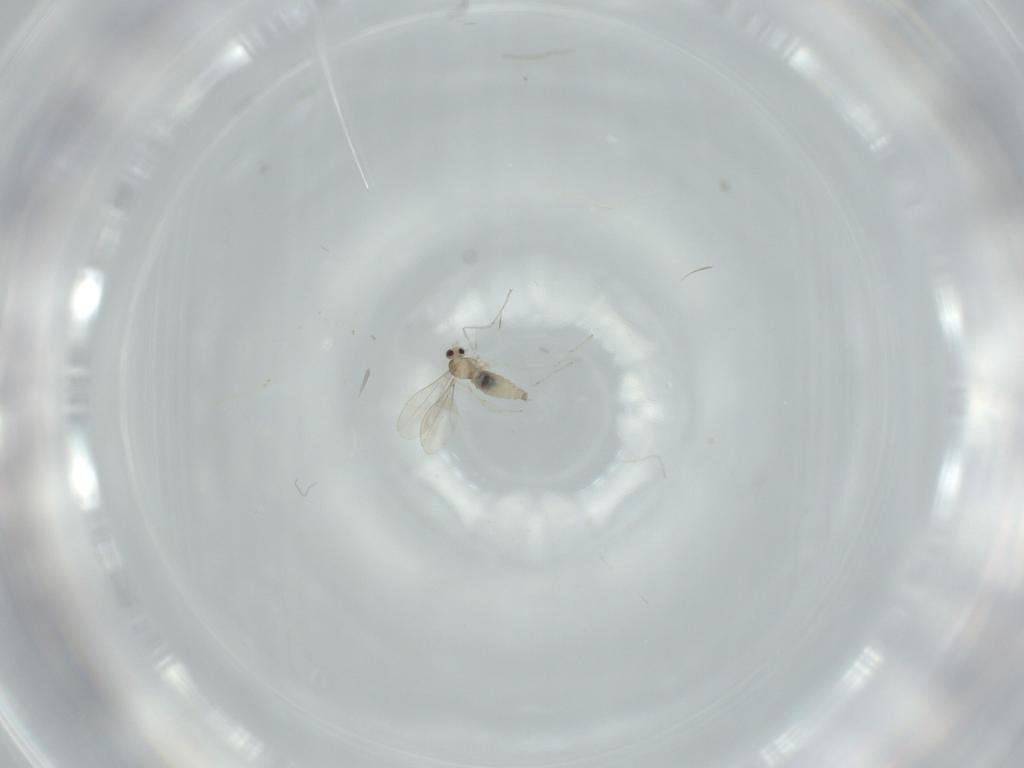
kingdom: Animalia
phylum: Arthropoda
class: Insecta
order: Diptera
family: Cecidomyiidae
